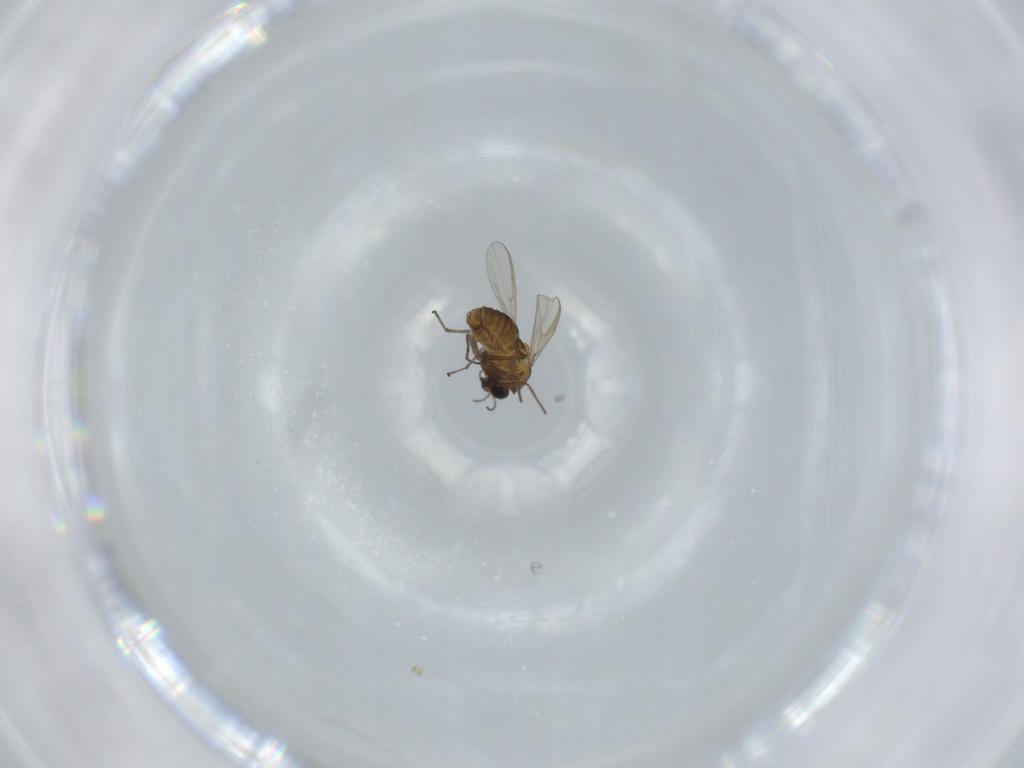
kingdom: Animalia
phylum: Arthropoda
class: Insecta
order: Diptera
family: Chironomidae
